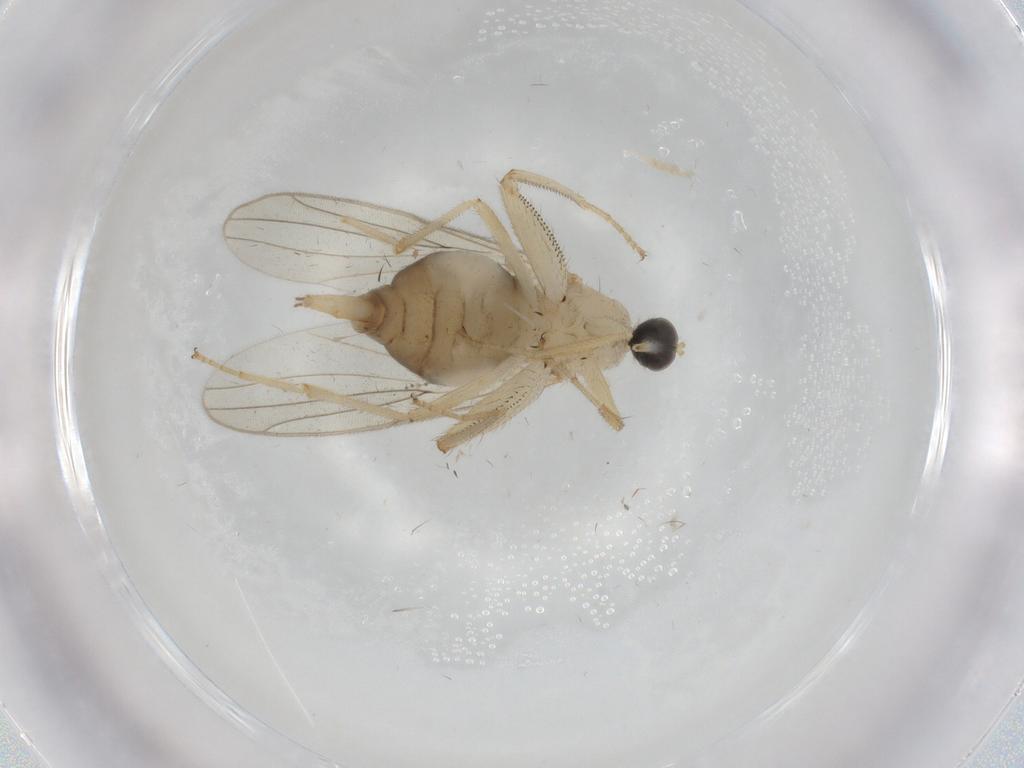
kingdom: Animalia
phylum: Arthropoda
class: Insecta
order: Diptera
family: Hybotidae
